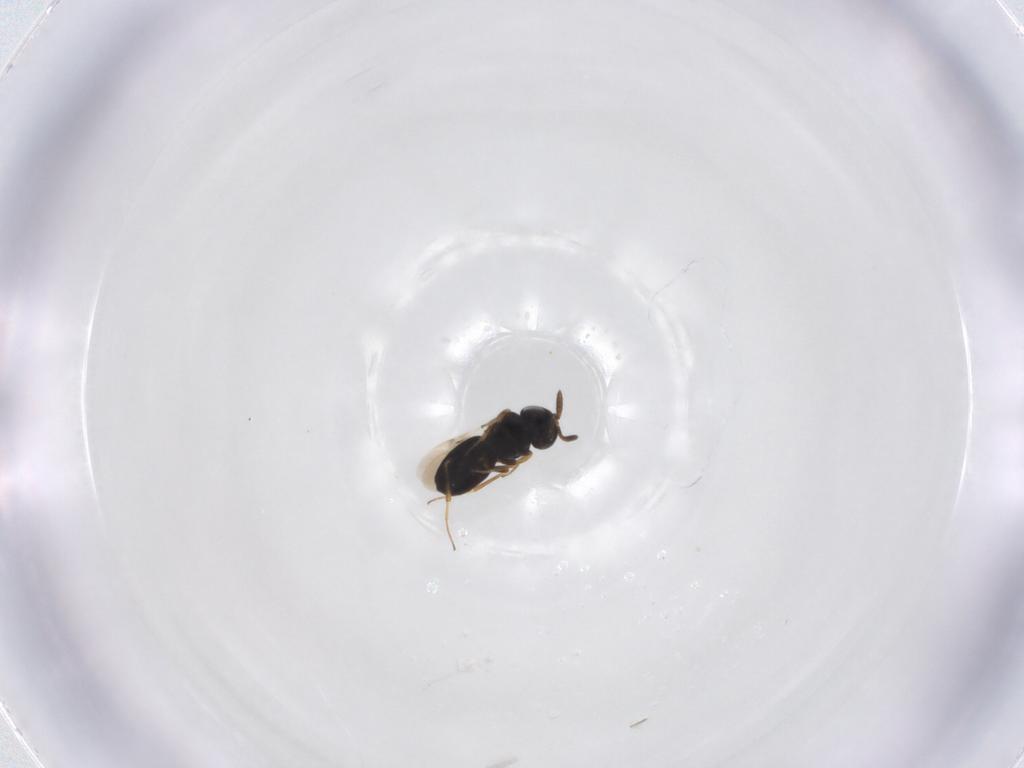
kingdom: Animalia
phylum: Arthropoda
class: Insecta
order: Hymenoptera
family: Scelionidae
